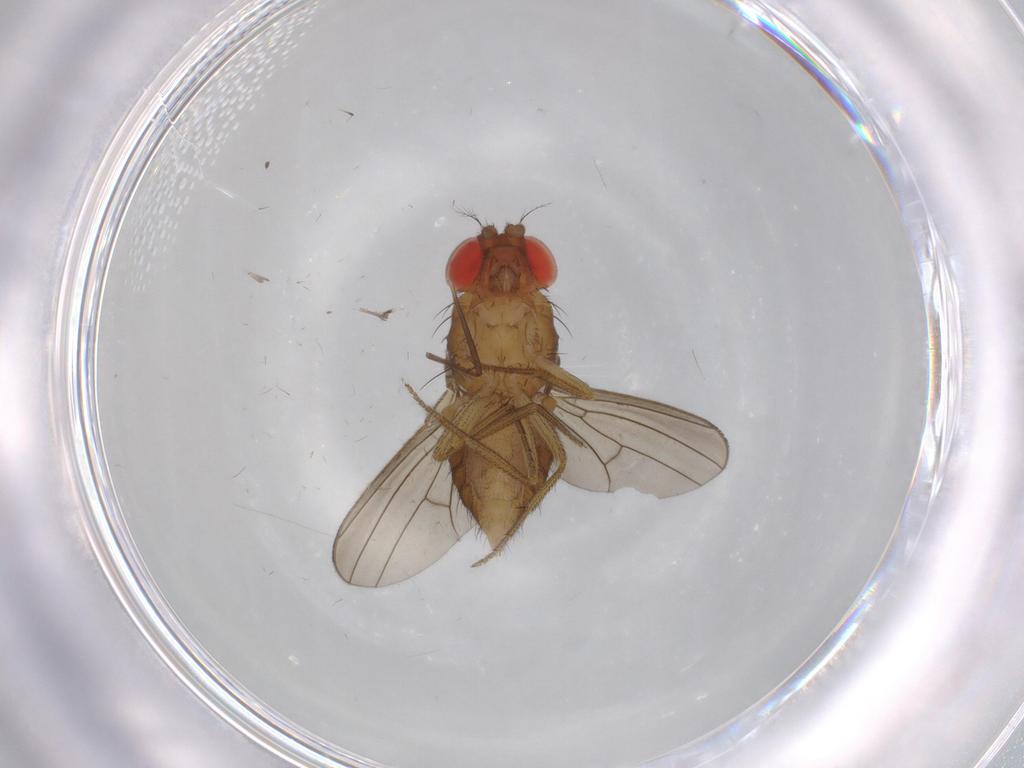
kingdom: Animalia
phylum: Arthropoda
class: Insecta
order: Diptera
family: Drosophilidae
